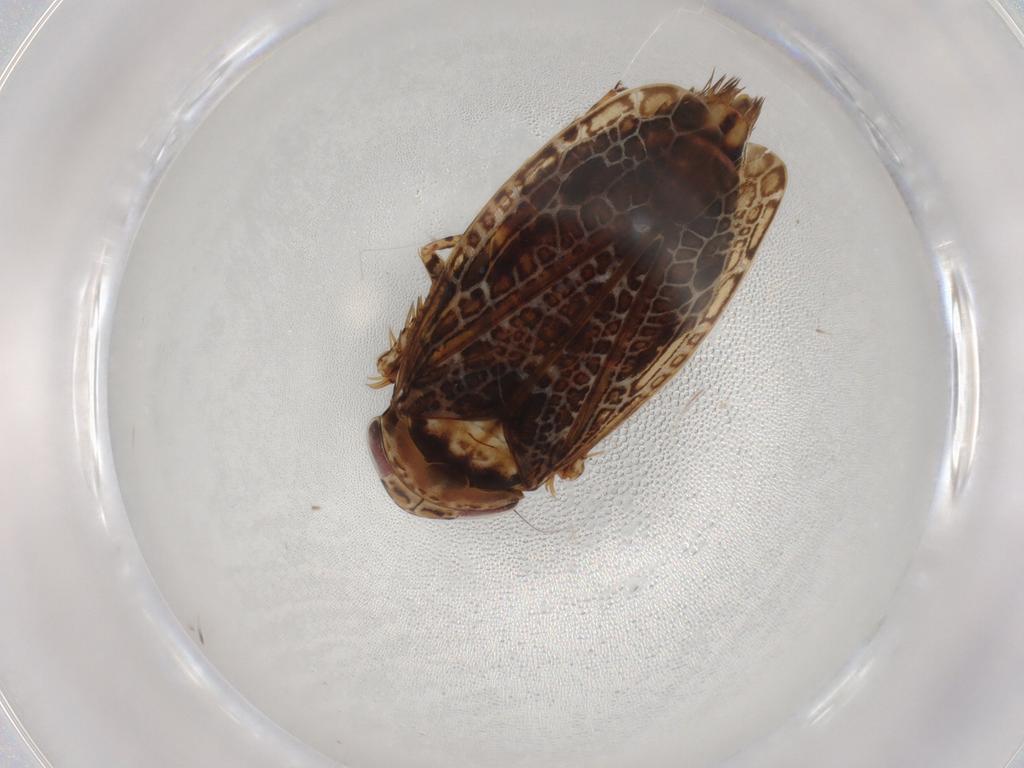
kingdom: Animalia
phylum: Arthropoda
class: Insecta
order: Hemiptera
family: Cicadellidae
